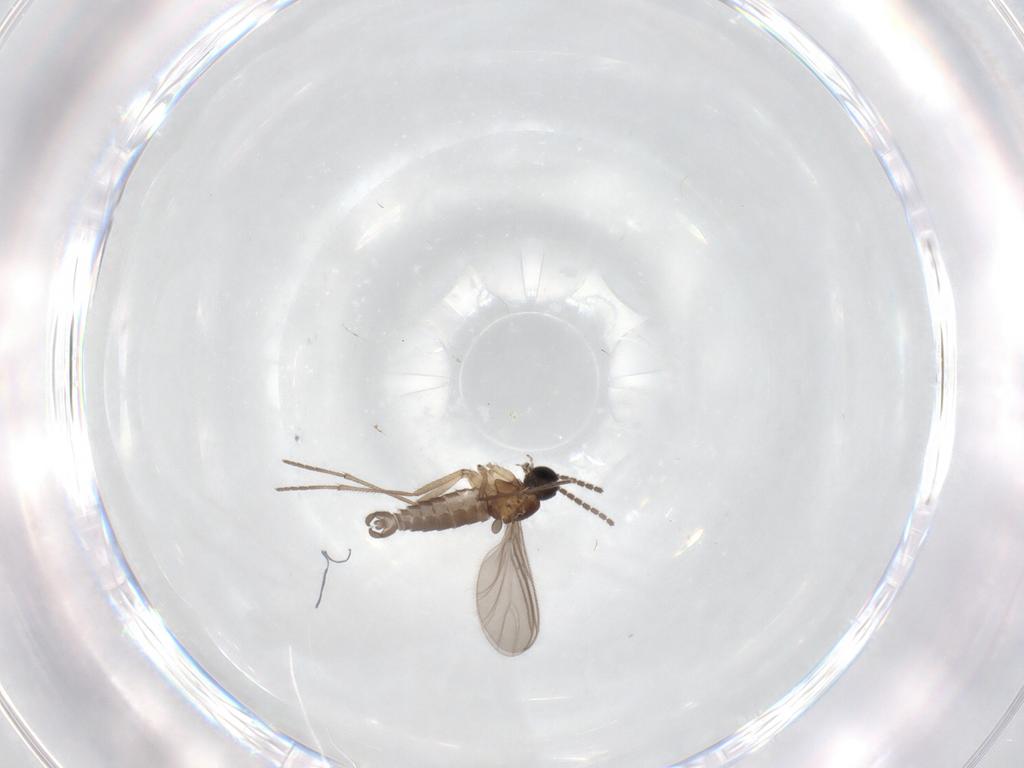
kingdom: Animalia
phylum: Arthropoda
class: Insecta
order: Diptera
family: Sciaridae
